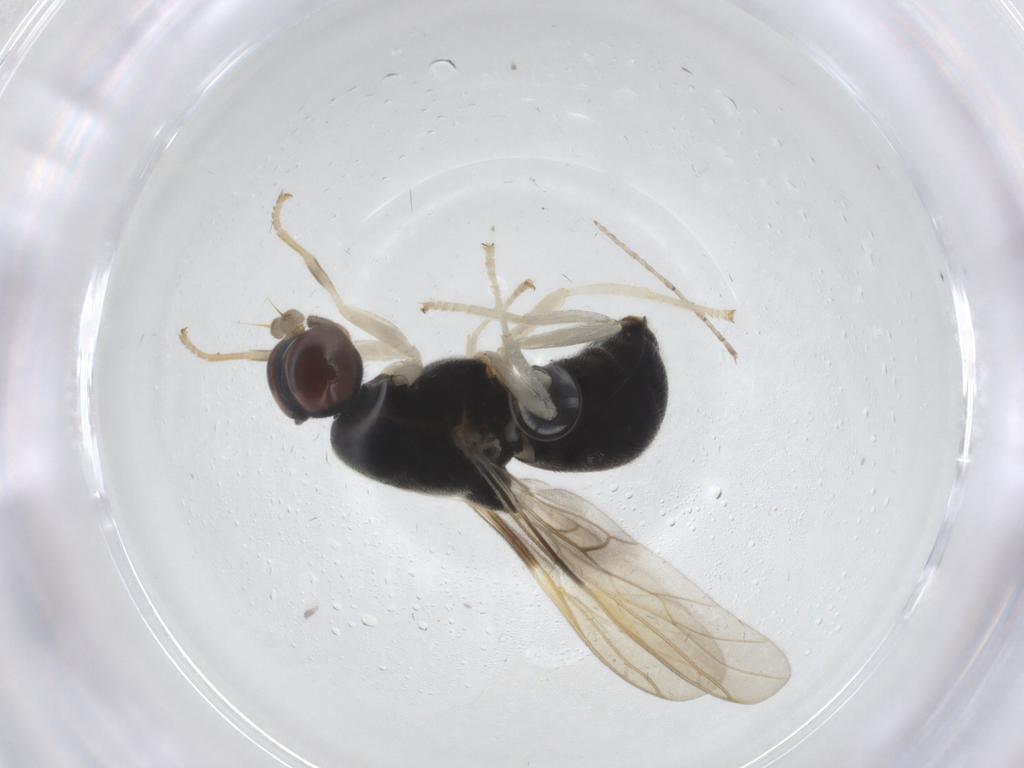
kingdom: Animalia
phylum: Arthropoda
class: Insecta
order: Diptera
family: Stratiomyidae
